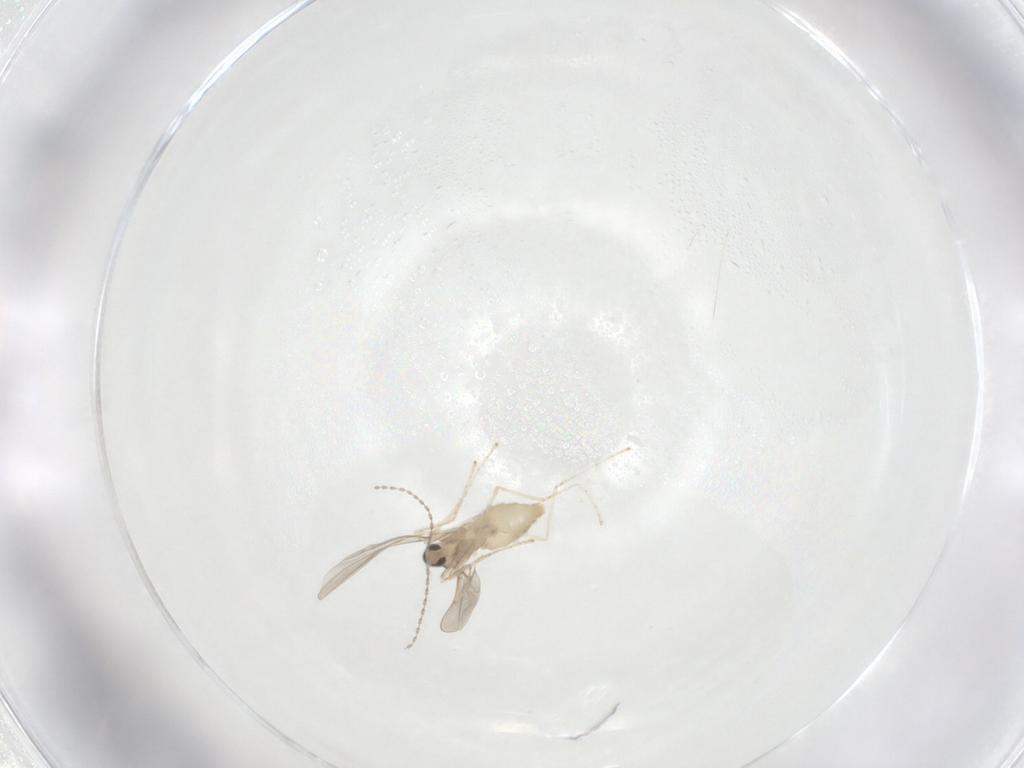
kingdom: Animalia
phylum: Arthropoda
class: Insecta
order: Diptera
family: Cecidomyiidae
